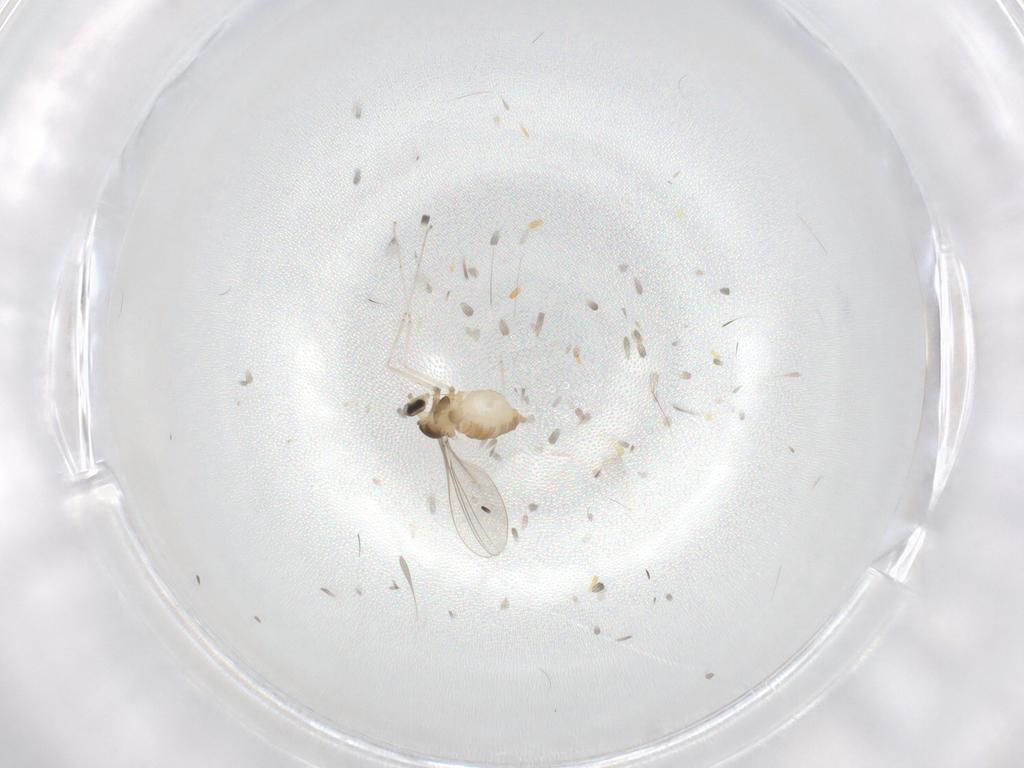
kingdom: Animalia
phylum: Arthropoda
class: Insecta
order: Diptera
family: Cecidomyiidae
